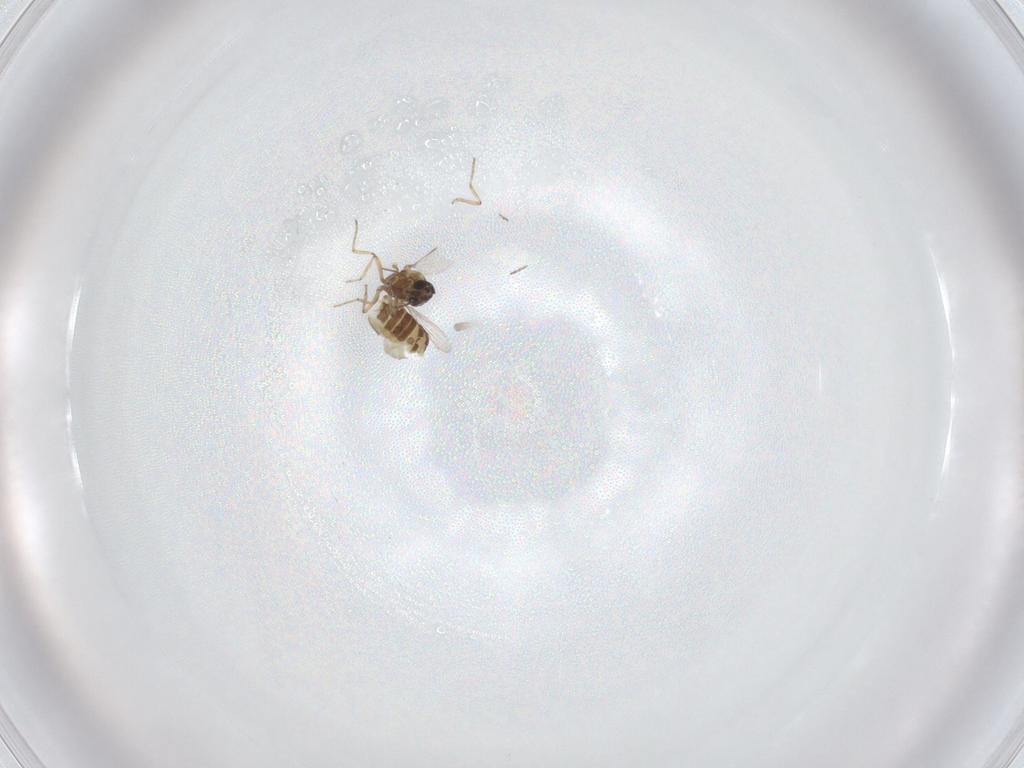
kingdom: Animalia
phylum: Arthropoda
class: Insecta
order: Diptera
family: Ceratopogonidae
